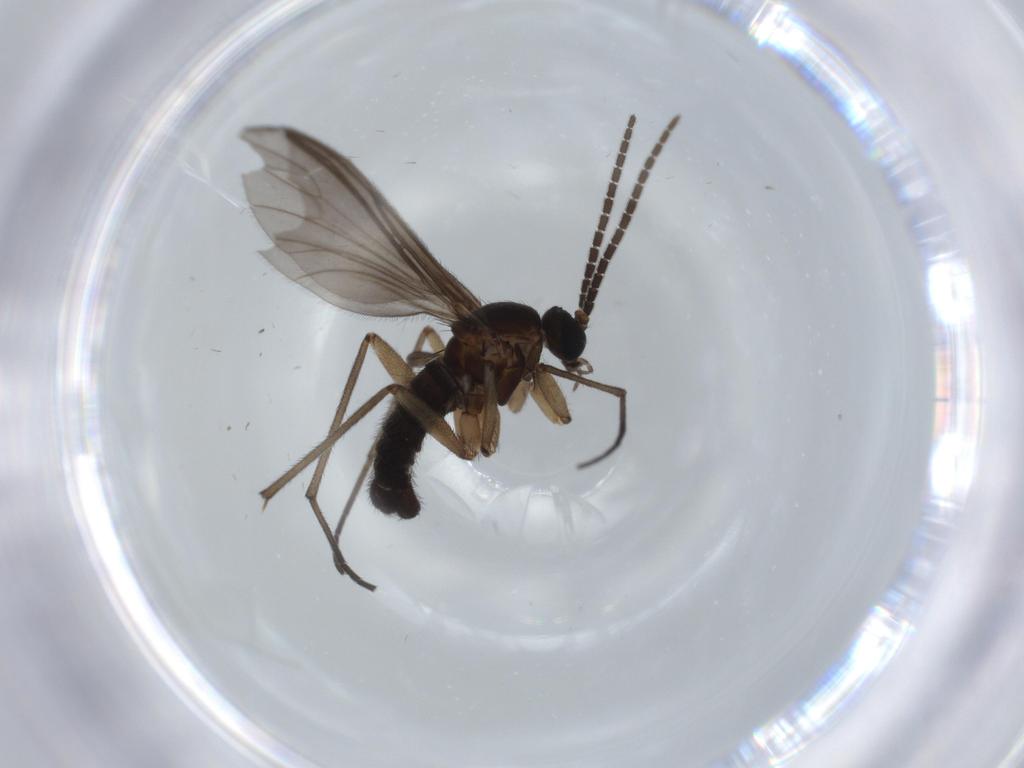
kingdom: Animalia
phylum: Arthropoda
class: Insecta
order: Diptera
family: Sciaridae
